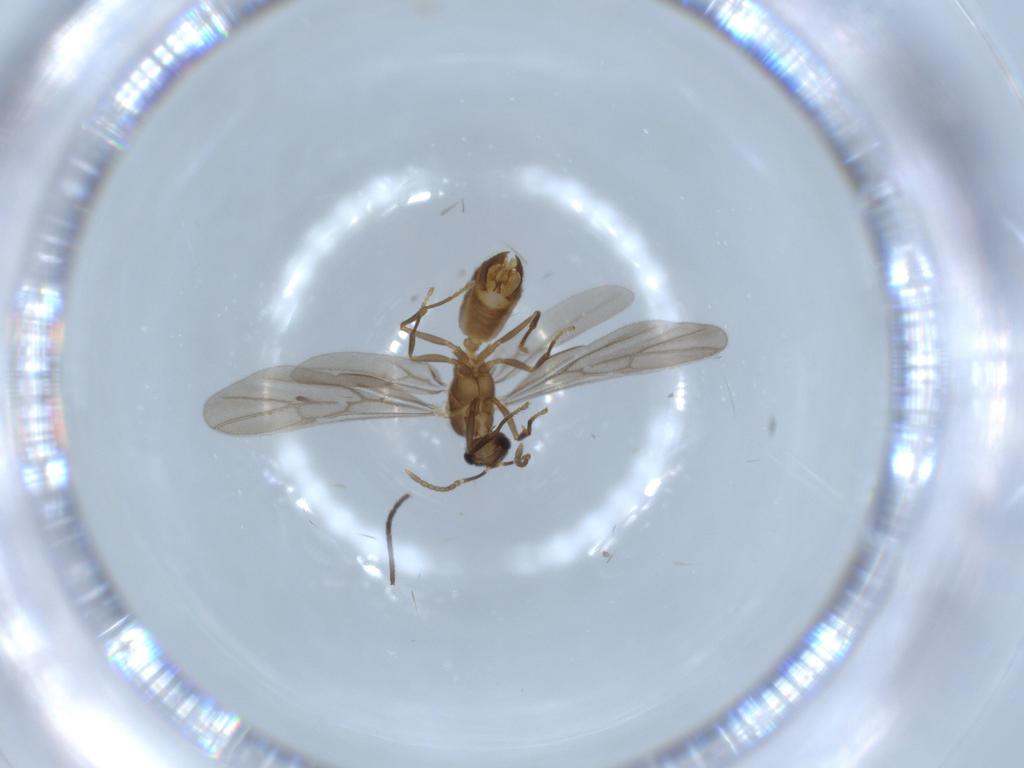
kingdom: Animalia
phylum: Arthropoda
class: Insecta
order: Hymenoptera
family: Formicidae
